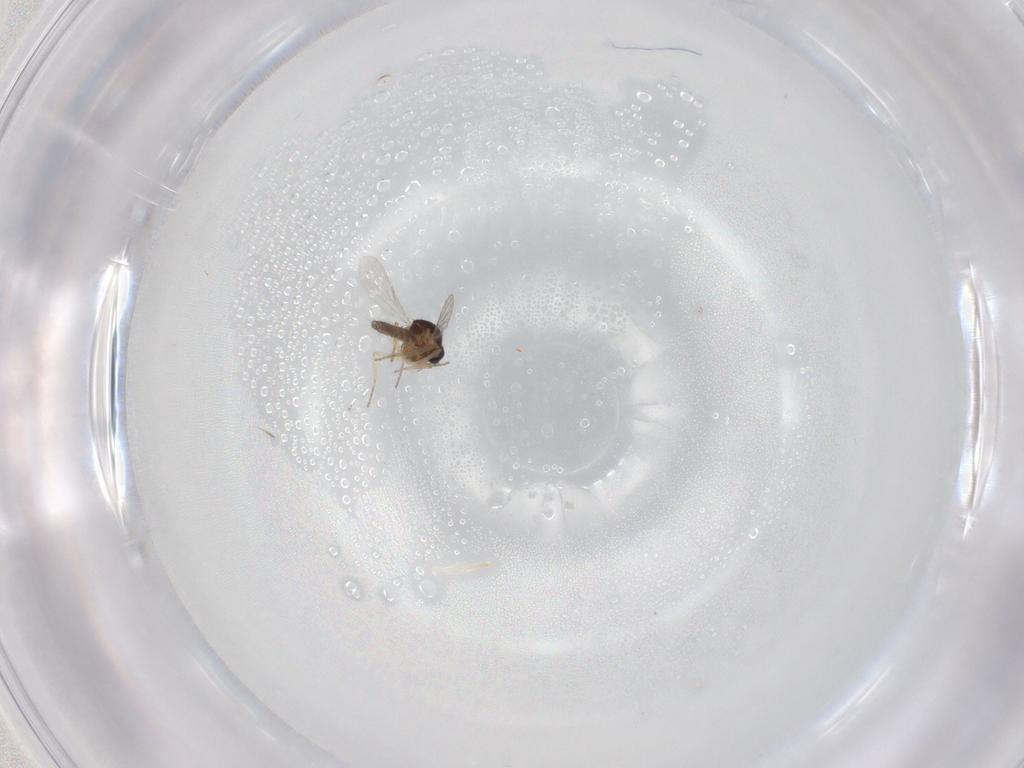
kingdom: Animalia
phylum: Arthropoda
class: Insecta
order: Diptera
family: Ceratopogonidae
